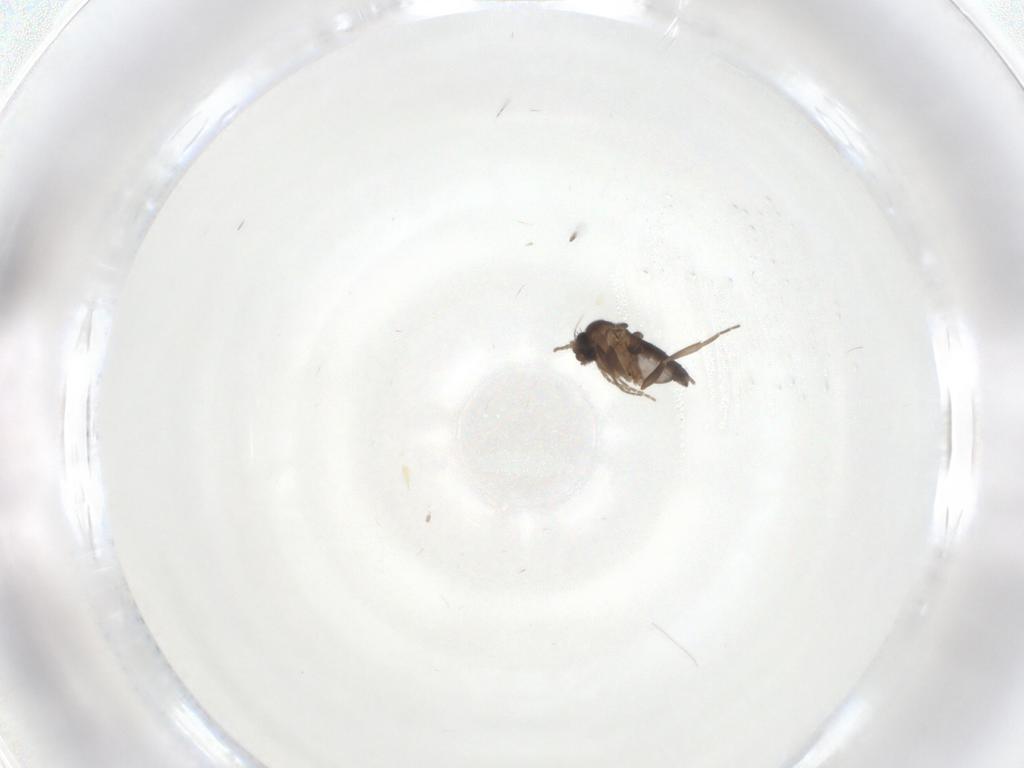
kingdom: Animalia
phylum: Arthropoda
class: Insecta
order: Diptera
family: Phoridae
